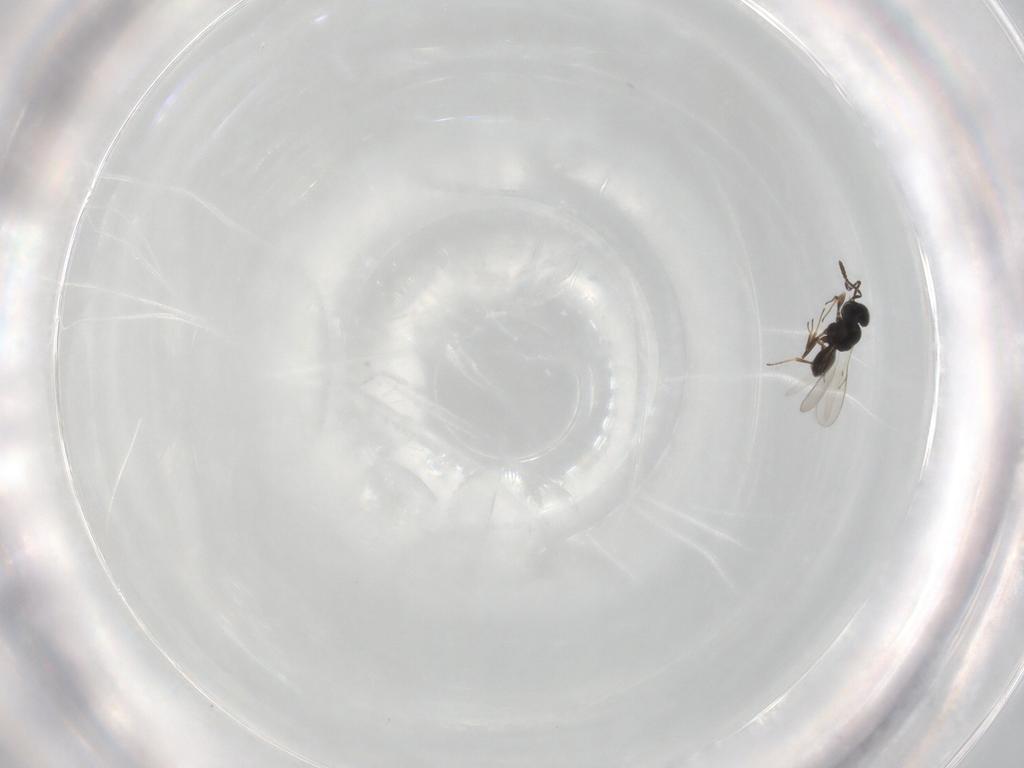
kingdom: Animalia
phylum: Arthropoda
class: Insecta
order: Hymenoptera
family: Scelionidae
